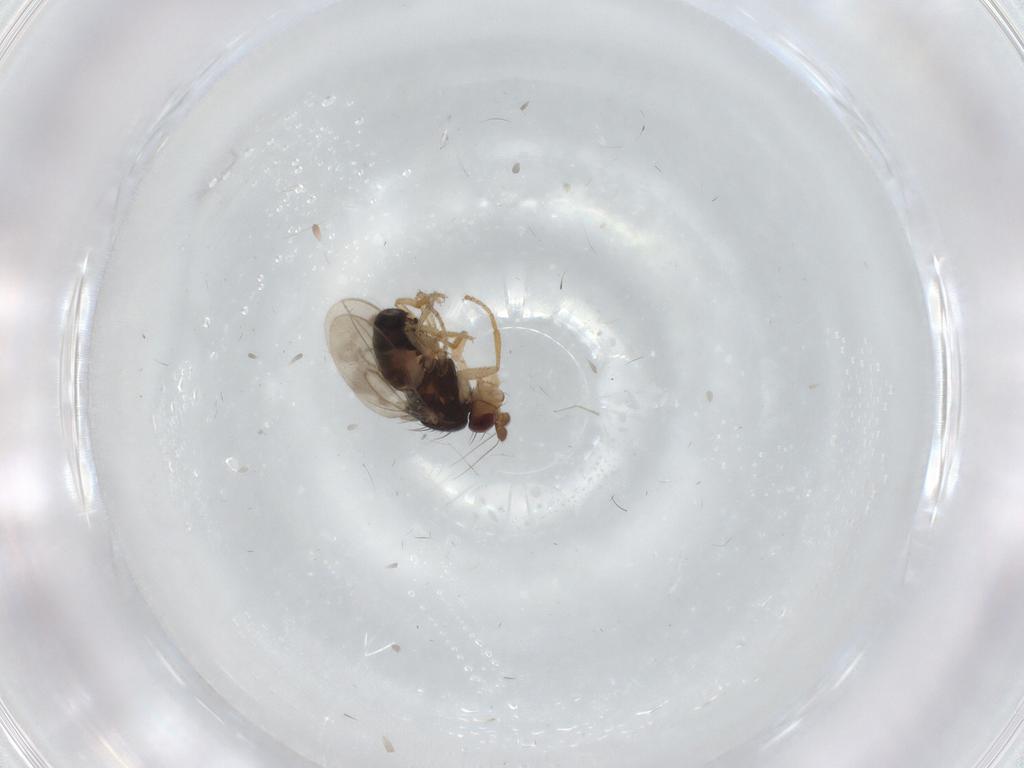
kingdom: Animalia
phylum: Arthropoda
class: Insecta
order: Diptera
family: Sphaeroceridae
